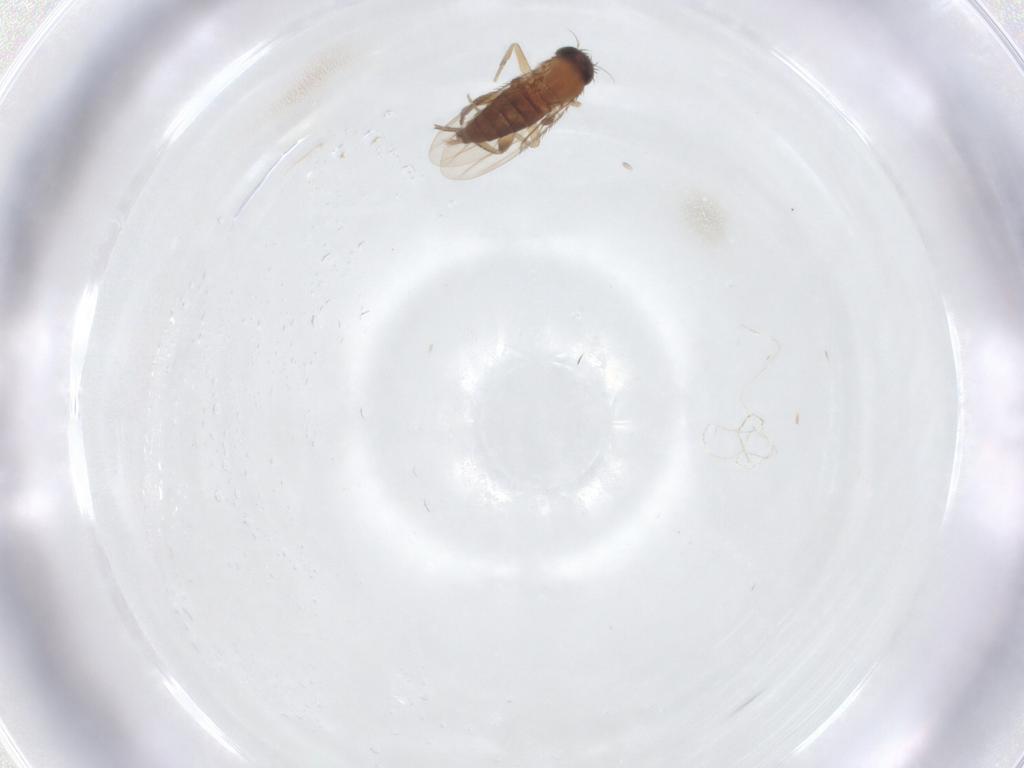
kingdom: Animalia
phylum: Arthropoda
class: Insecta
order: Diptera
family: Phoridae
